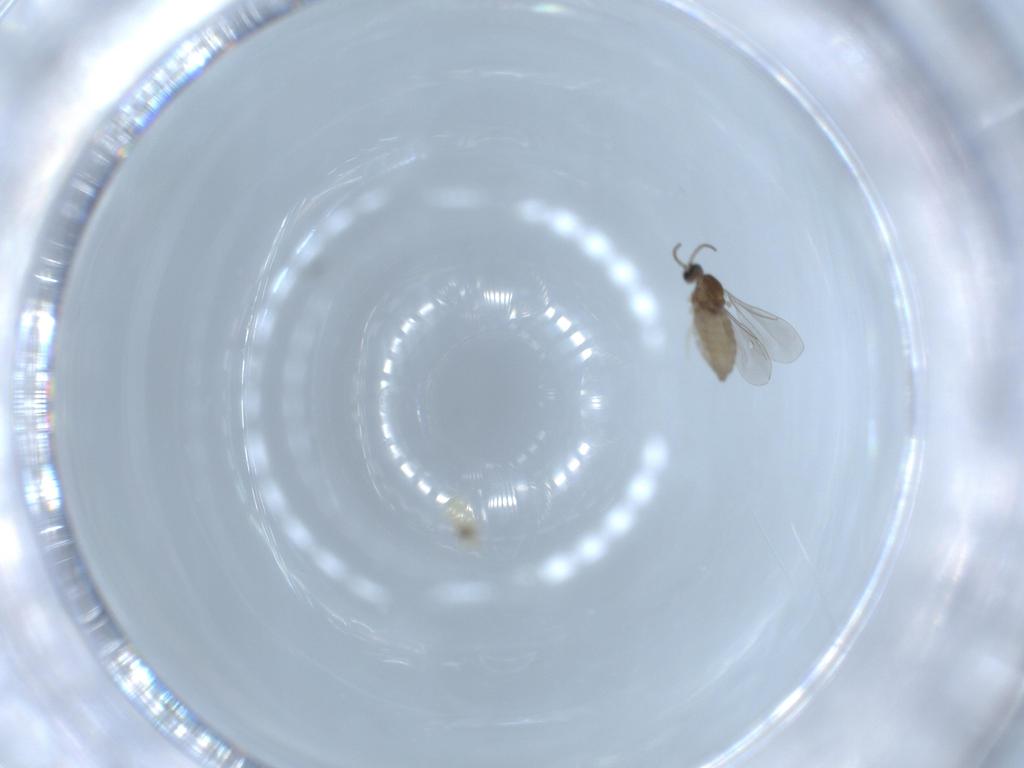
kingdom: Animalia
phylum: Arthropoda
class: Insecta
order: Diptera
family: Cecidomyiidae
